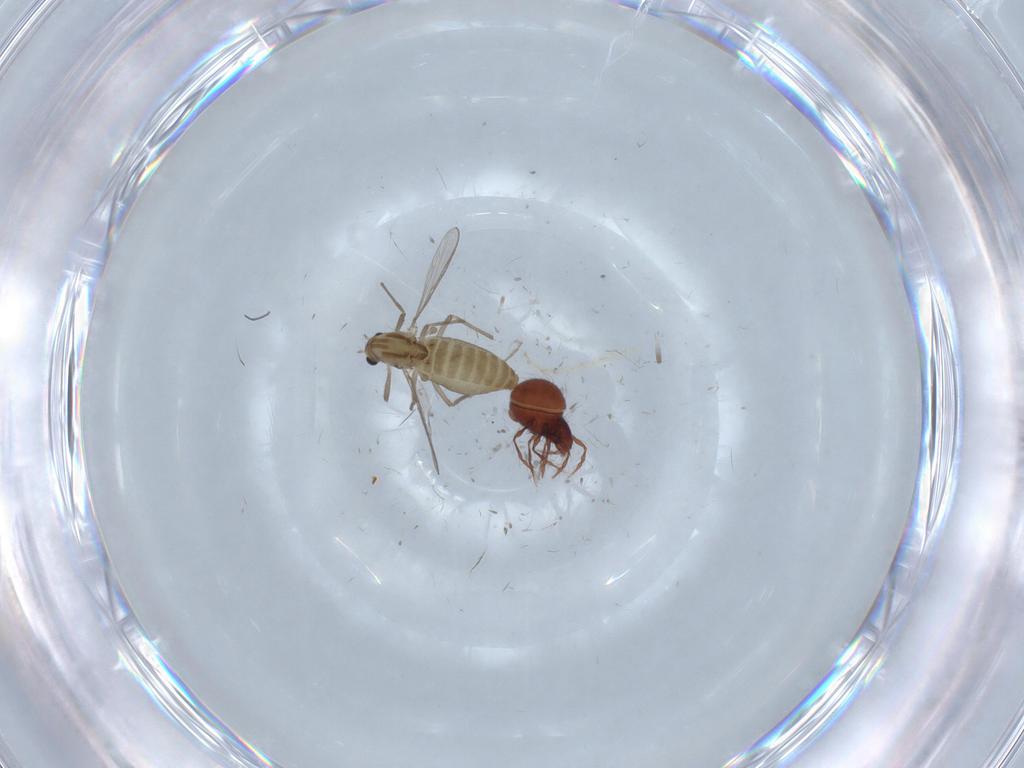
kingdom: Animalia
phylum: Arthropoda
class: Insecta
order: Diptera
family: Chironomidae
